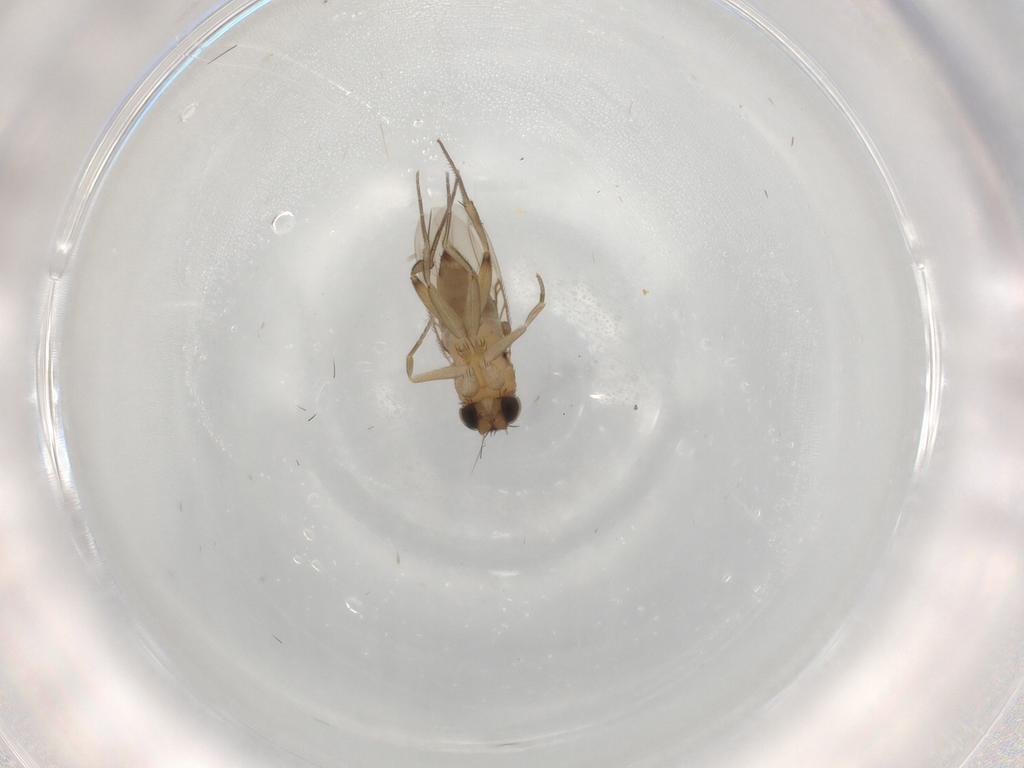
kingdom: Animalia
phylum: Arthropoda
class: Insecta
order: Diptera
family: Phoridae
